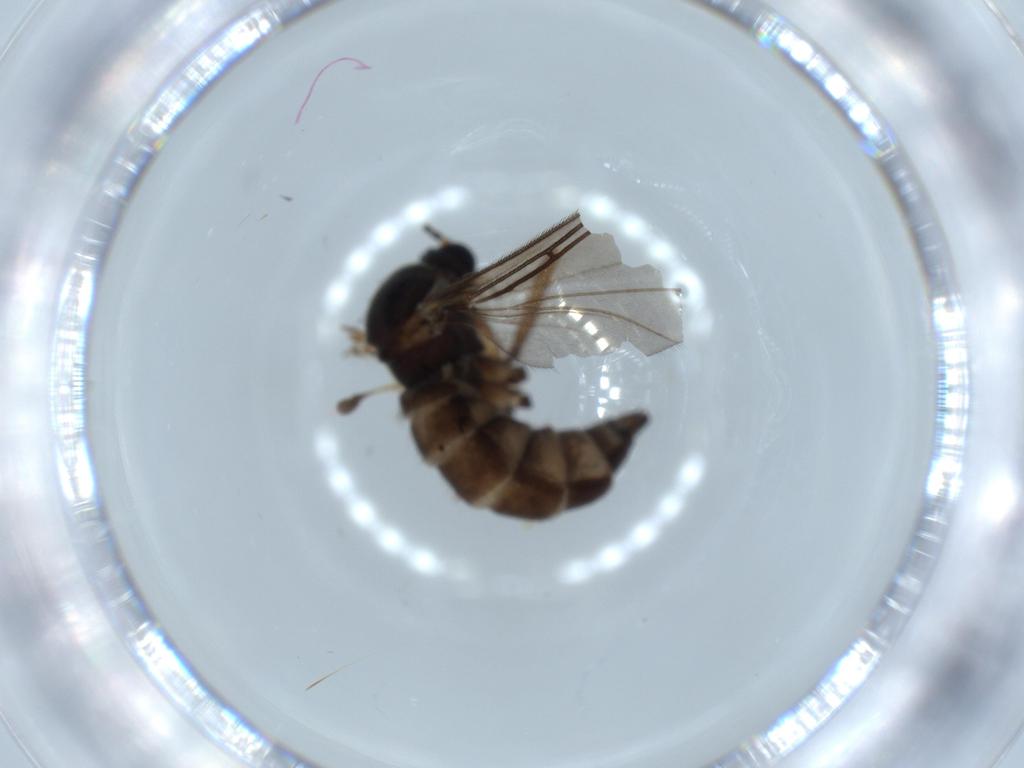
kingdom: Animalia
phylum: Arthropoda
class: Insecta
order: Diptera
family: Sciaridae
